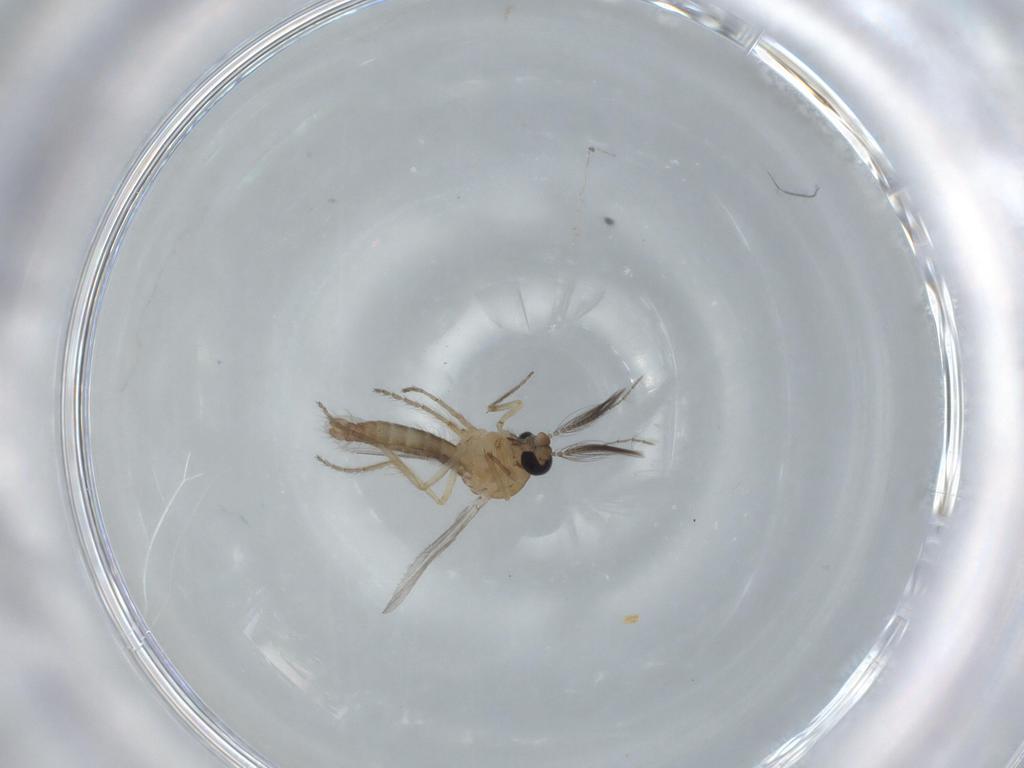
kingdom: Animalia
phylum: Arthropoda
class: Insecta
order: Diptera
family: Ceratopogonidae
